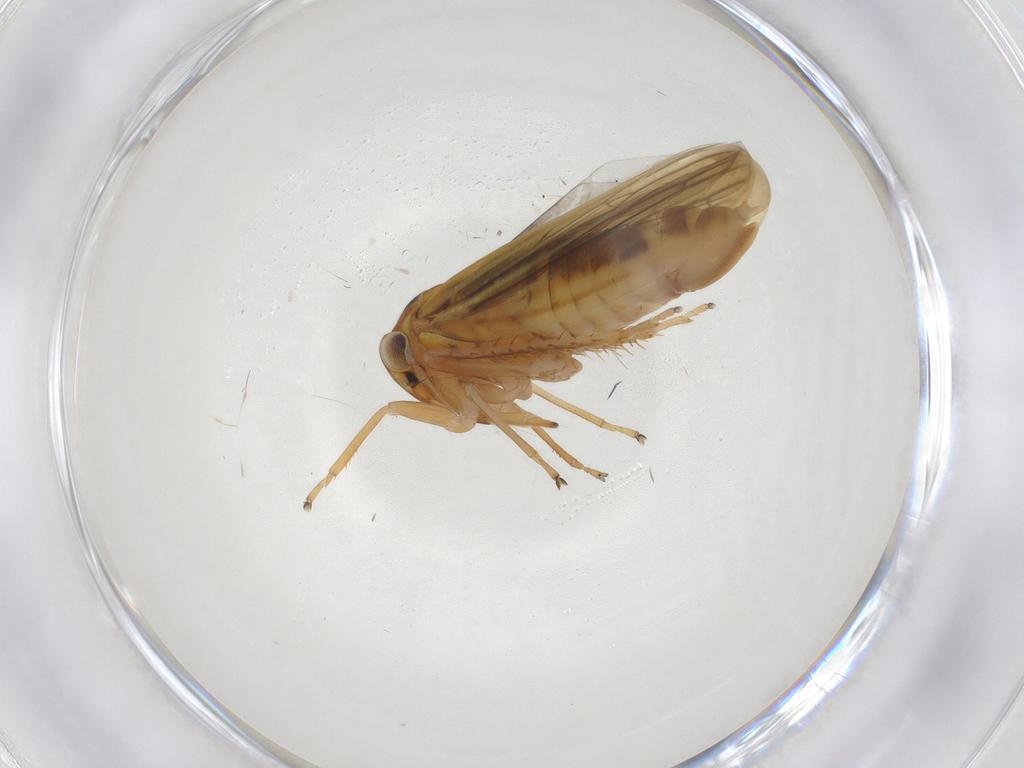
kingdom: Animalia
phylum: Arthropoda
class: Insecta
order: Hemiptera
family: Cicadellidae
